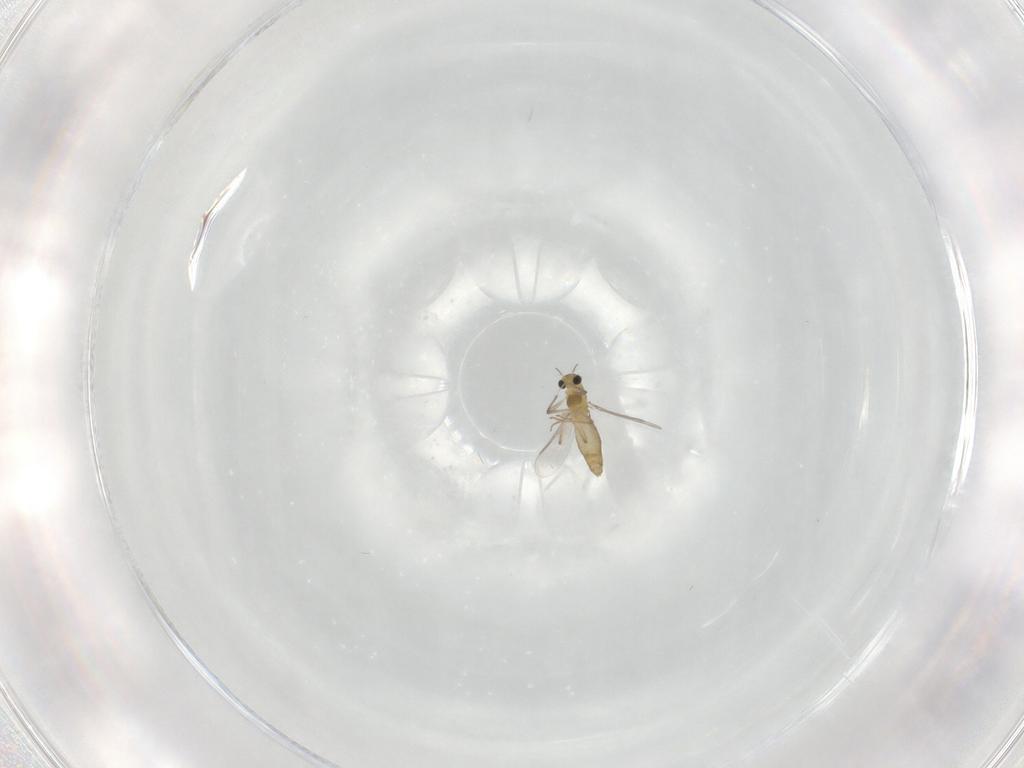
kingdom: Animalia
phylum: Arthropoda
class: Insecta
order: Diptera
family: Chironomidae
